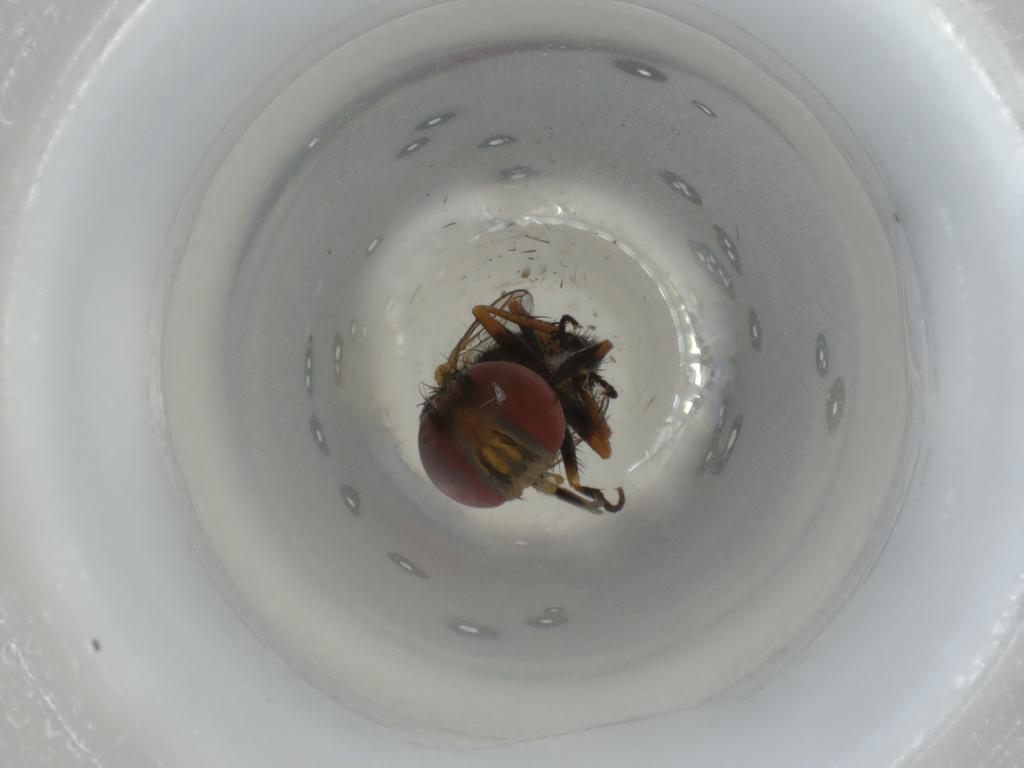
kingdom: Animalia
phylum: Arthropoda
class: Insecta
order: Diptera
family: Sarcophagidae
